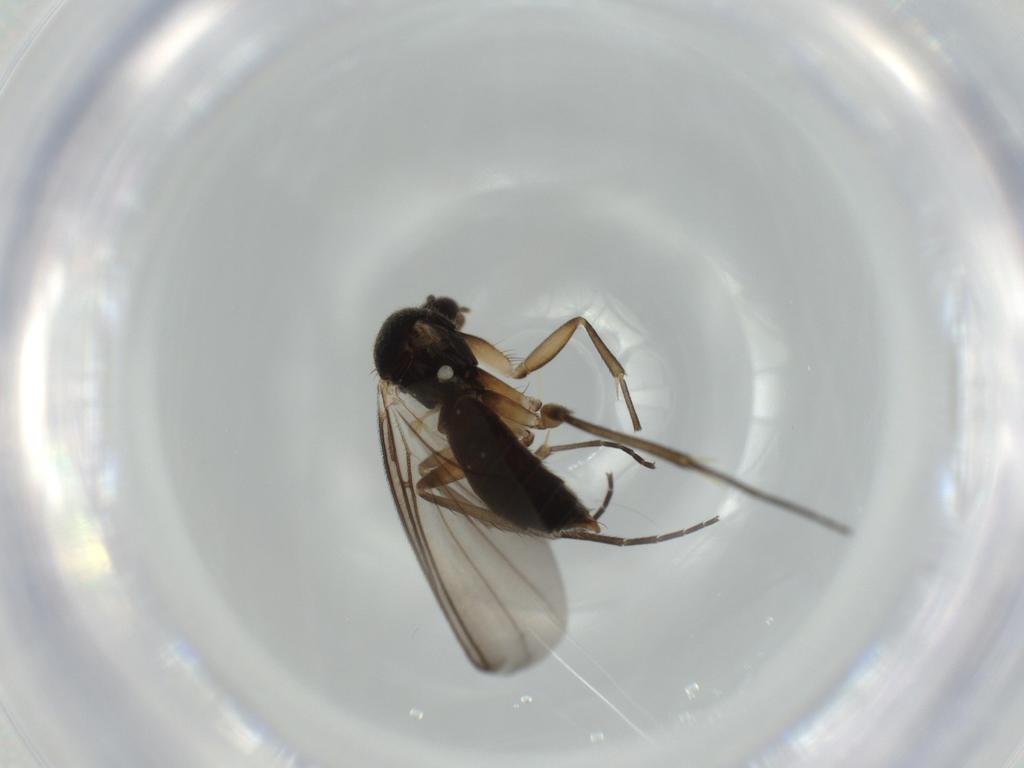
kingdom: Animalia
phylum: Arthropoda
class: Insecta
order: Diptera
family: Mycetophilidae
